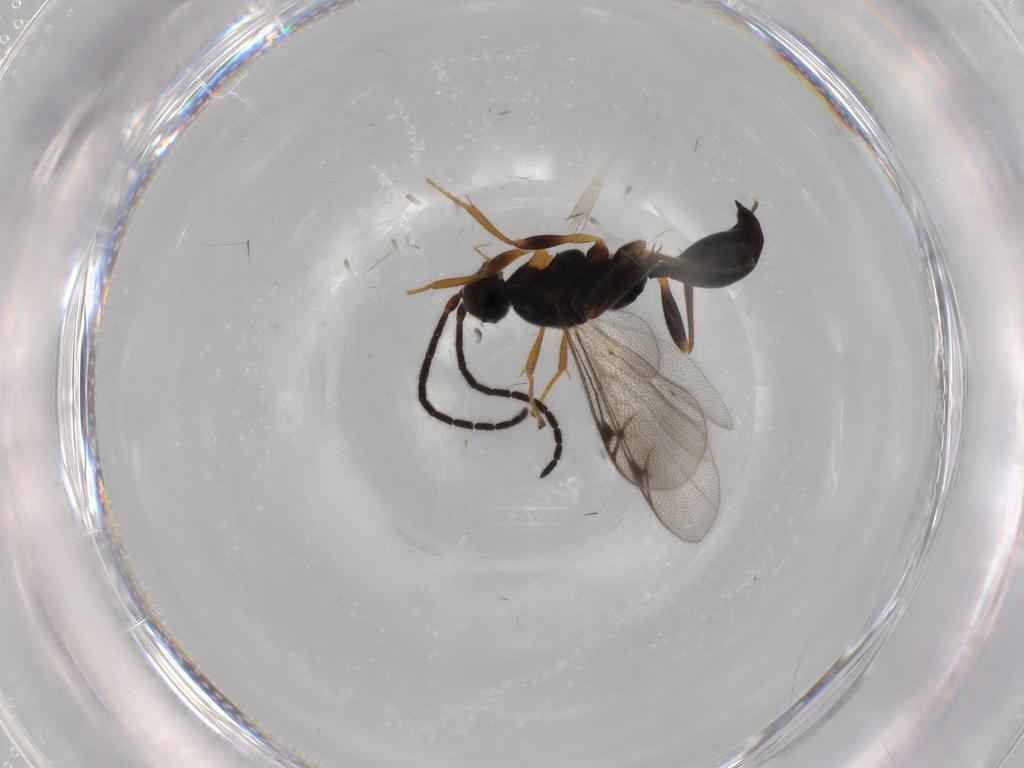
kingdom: Animalia
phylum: Arthropoda
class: Insecta
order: Hymenoptera
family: Proctotrupidae
